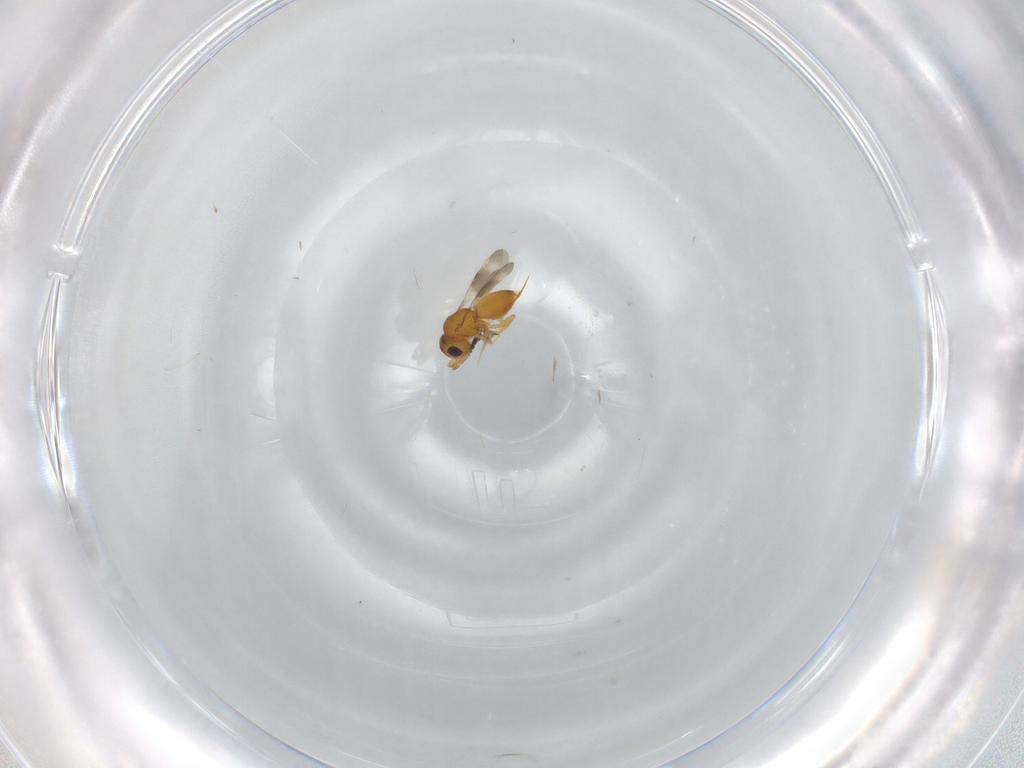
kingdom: Animalia
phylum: Arthropoda
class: Insecta
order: Hymenoptera
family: Ceraphronidae
